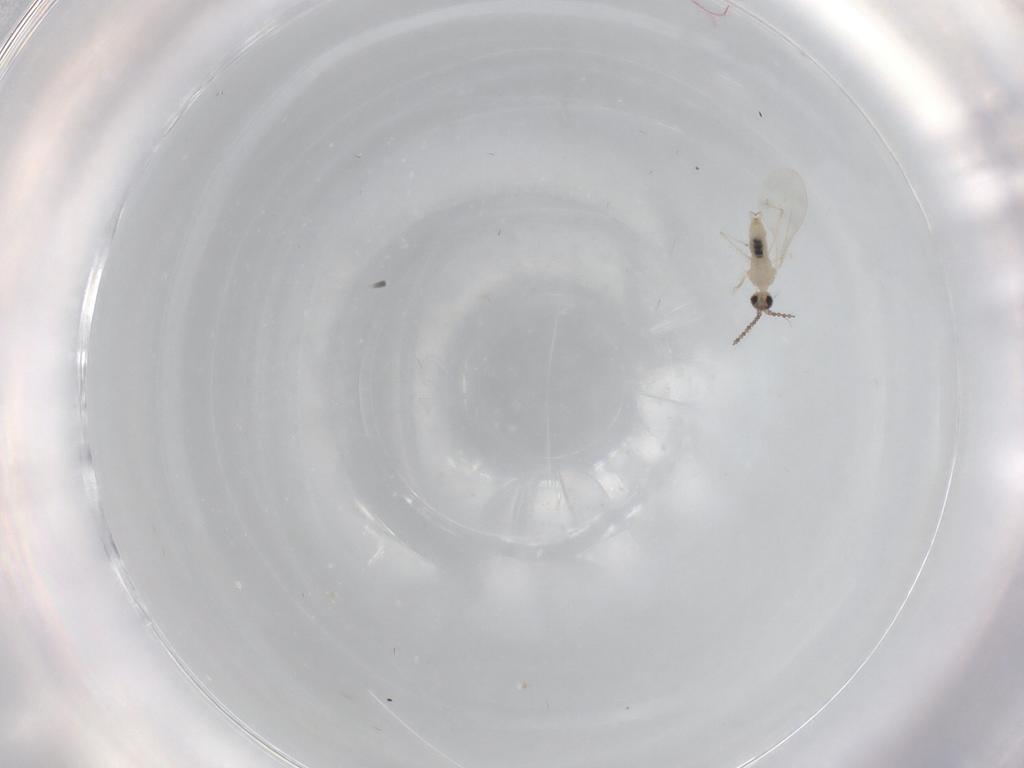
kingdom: Animalia
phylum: Arthropoda
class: Insecta
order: Diptera
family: Cecidomyiidae
